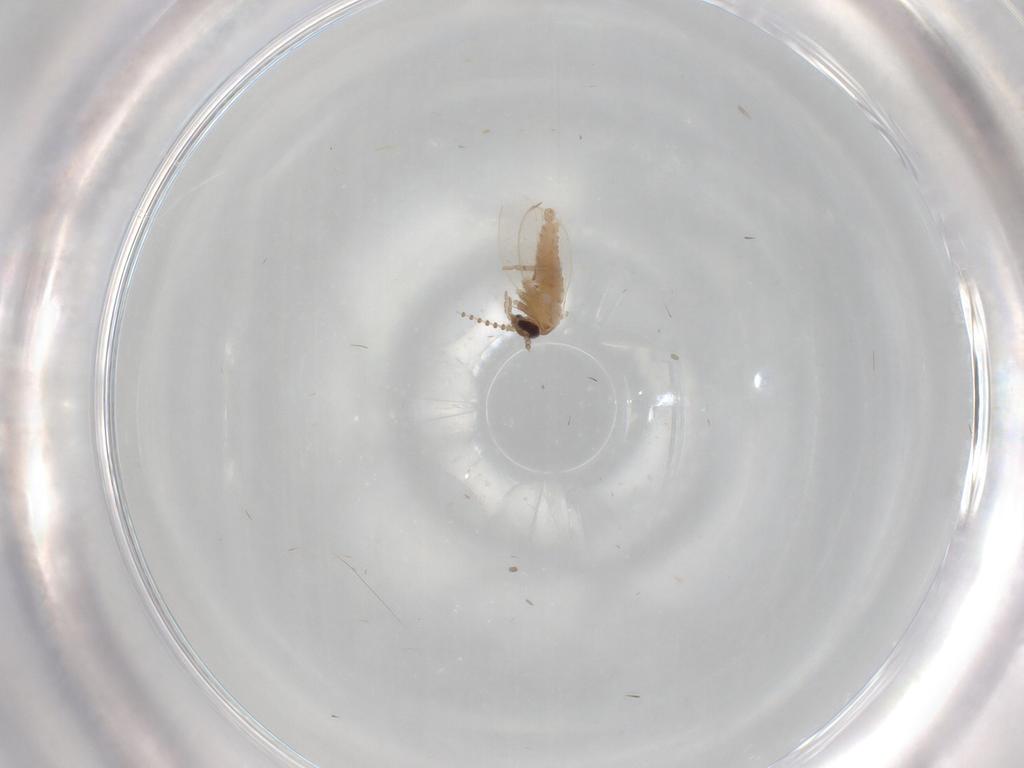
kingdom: Animalia
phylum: Arthropoda
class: Insecta
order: Diptera
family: Psychodidae
